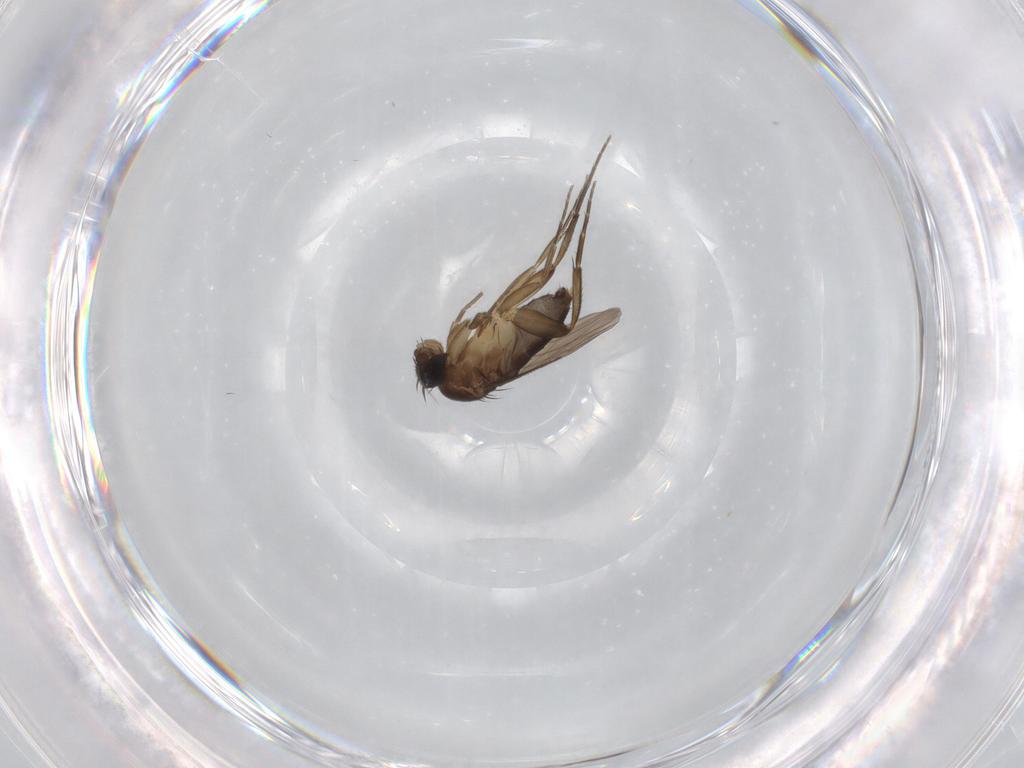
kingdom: Animalia
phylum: Arthropoda
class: Insecta
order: Diptera
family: Phoridae
